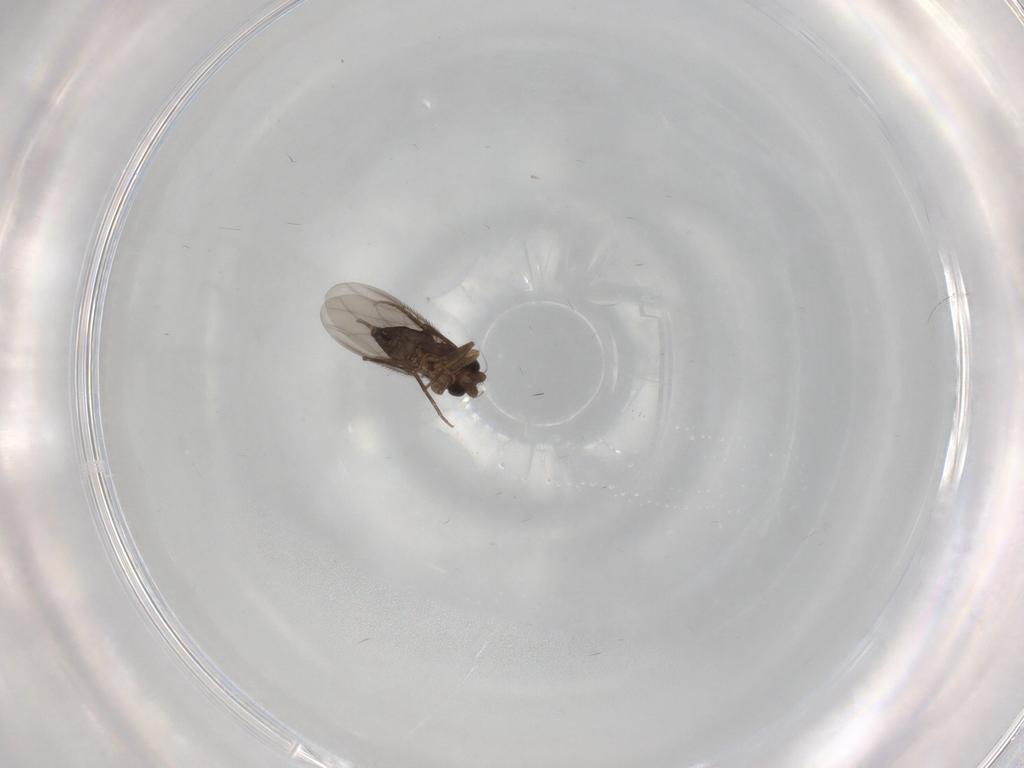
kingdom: Animalia
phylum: Arthropoda
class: Insecta
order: Diptera
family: Phoridae
